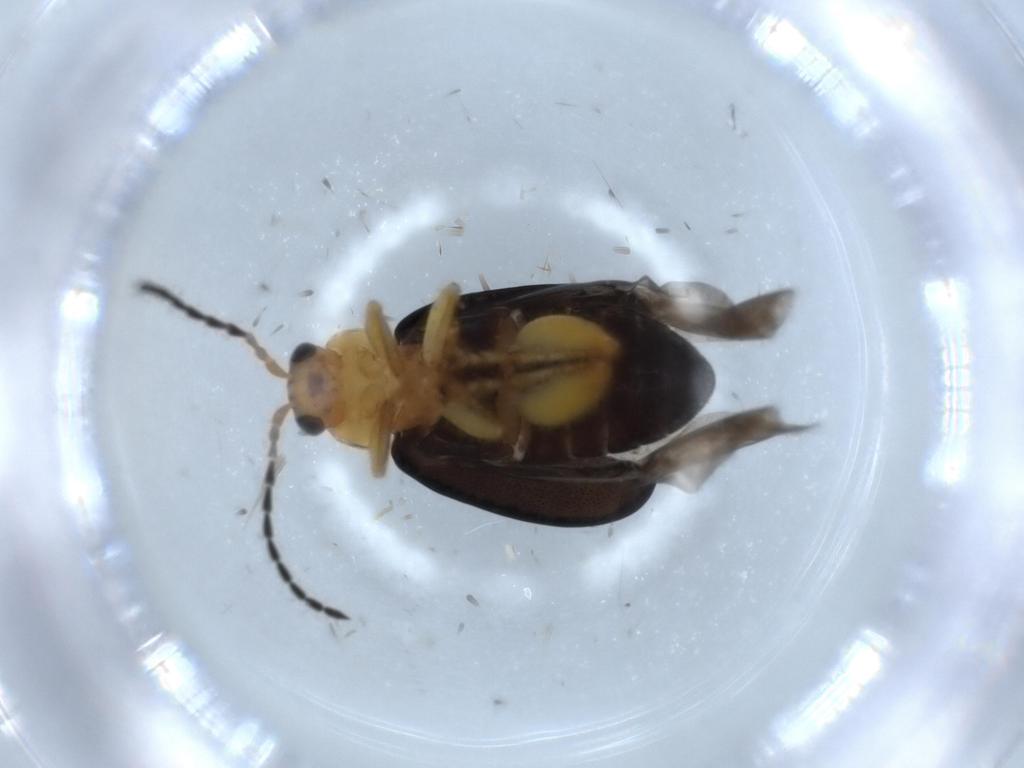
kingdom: Animalia
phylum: Arthropoda
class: Insecta
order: Coleoptera
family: Chrysomelidae
